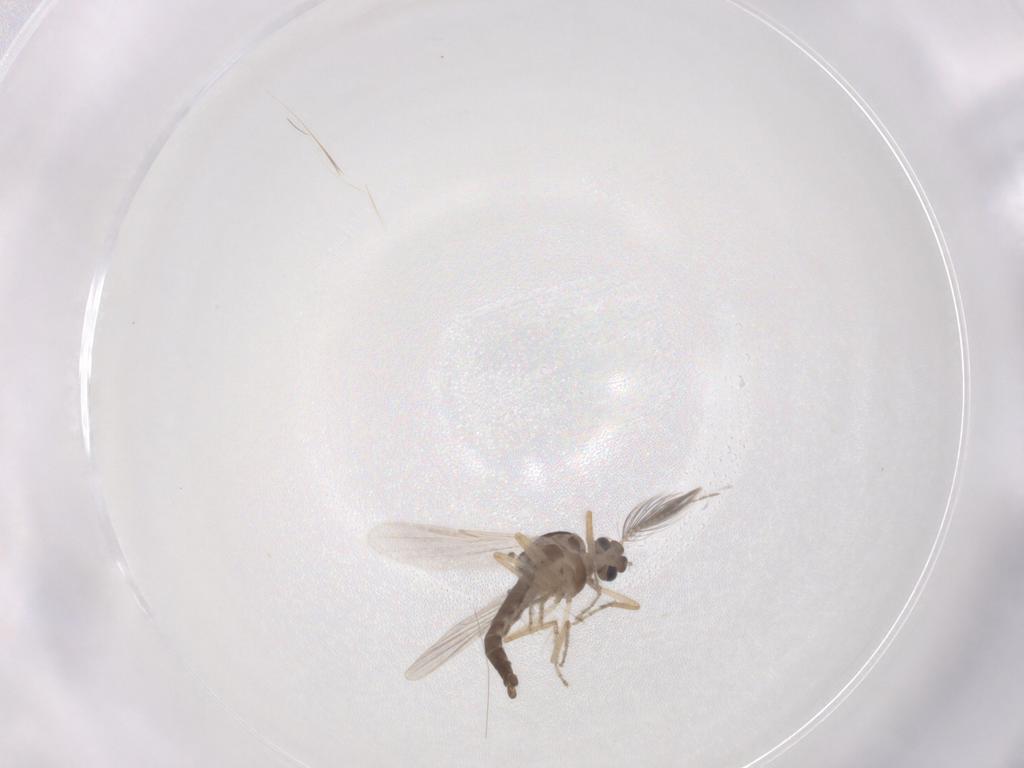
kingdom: Animalia
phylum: Arthropoda
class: Insecta
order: Diptera
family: Ceratopogonidae
